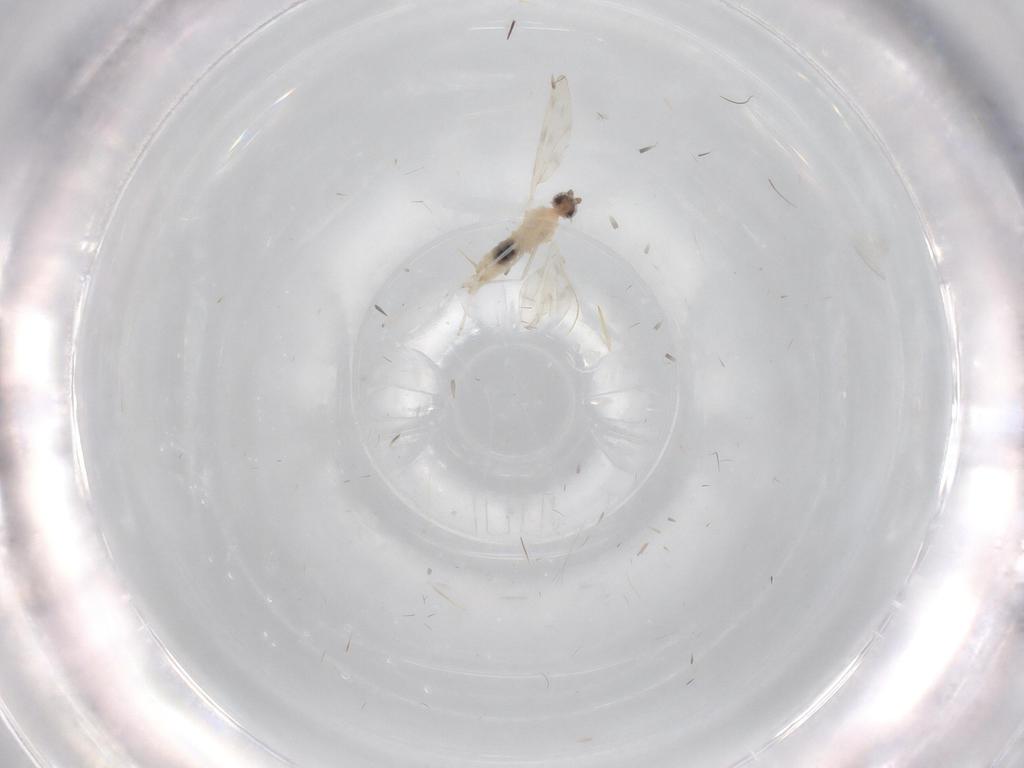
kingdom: Animalia
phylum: Arthropoda
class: Insecta
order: Diptera
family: Cecidomyiidae
